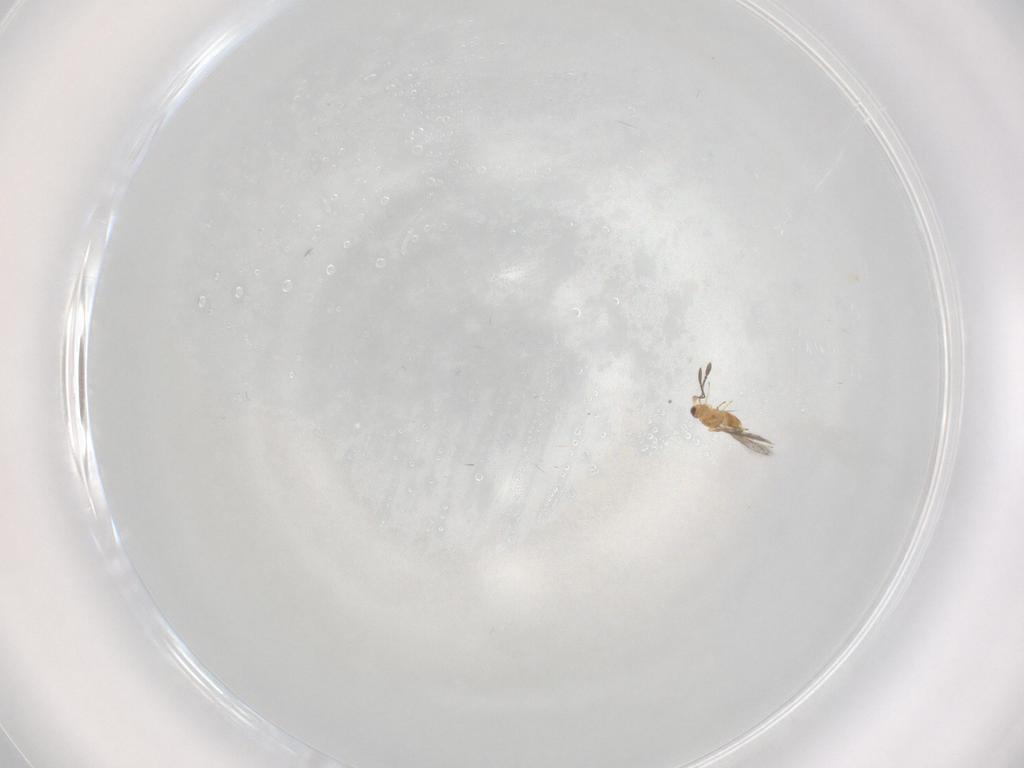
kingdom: Animalia
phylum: Arthropoda
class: Insecta
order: Hymenoptera
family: Mymaridae
